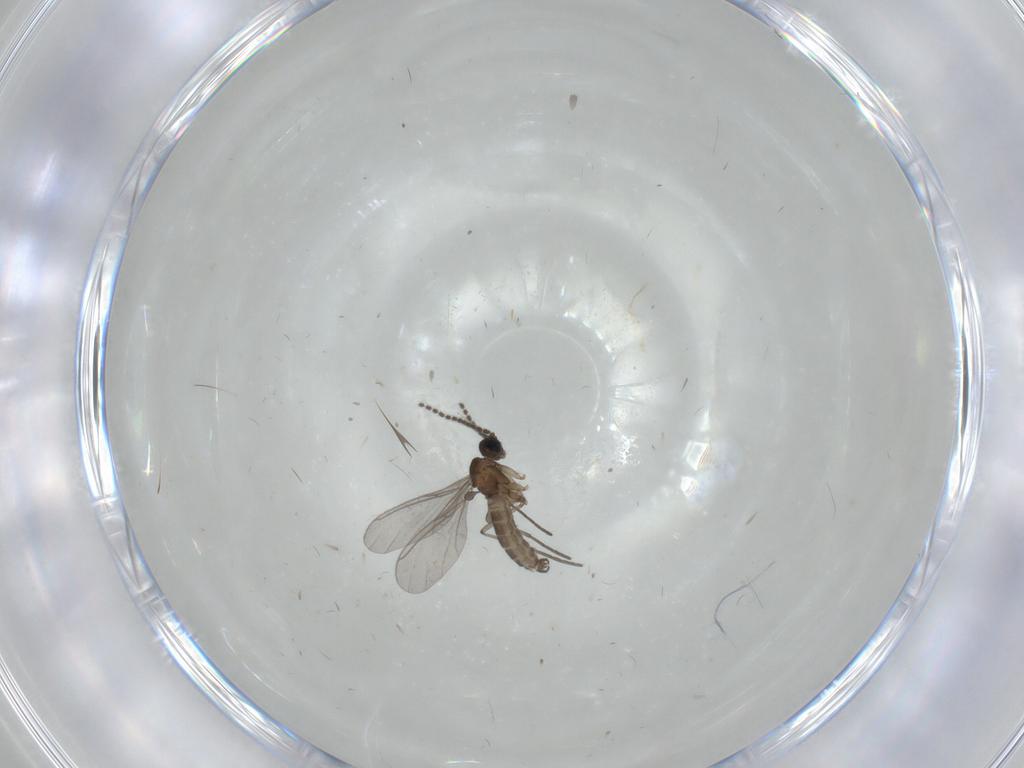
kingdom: Animalia
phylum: Arthropoda
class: Insecta
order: Diptera
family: Sciaridae
